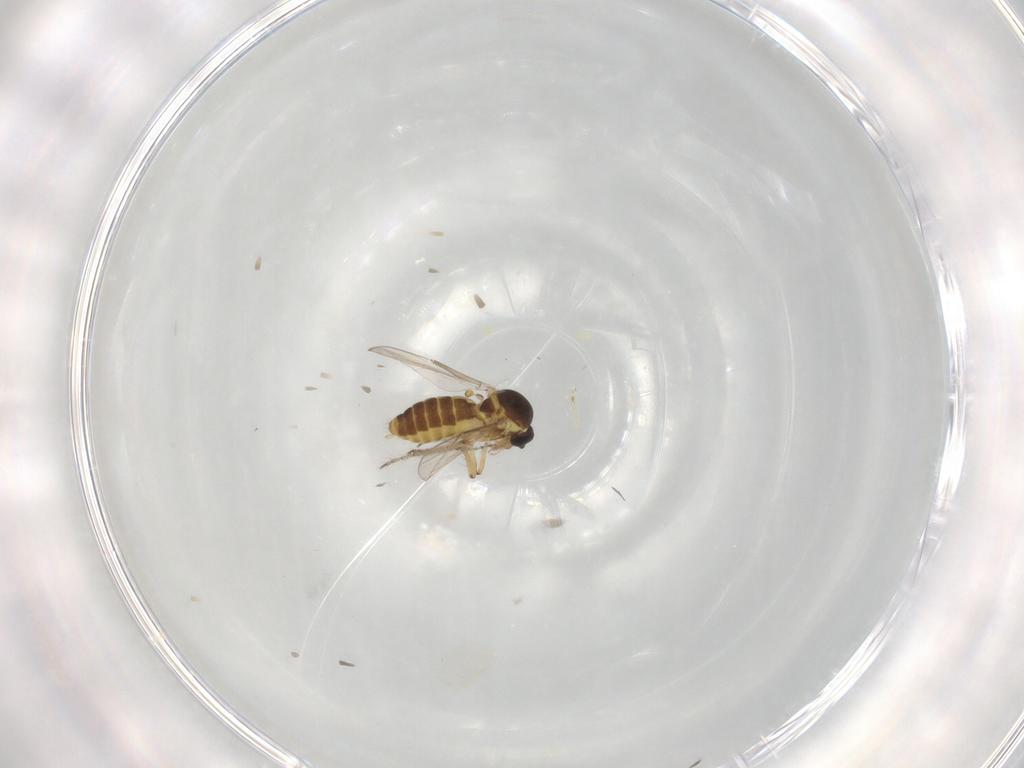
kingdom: Animalia
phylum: Arthropoda
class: Insecta
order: Diptera
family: Ceratopogonidae
